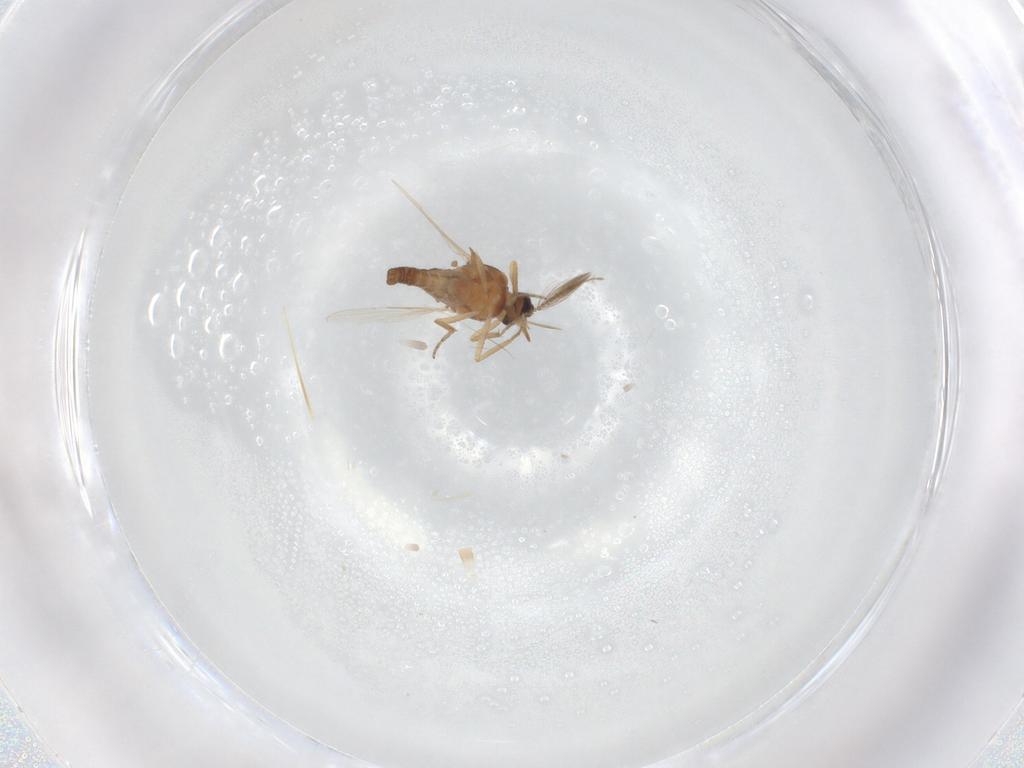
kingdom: Animalia
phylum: Arthropoda
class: Insecta
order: Diptera
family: Ceratopogonidae
